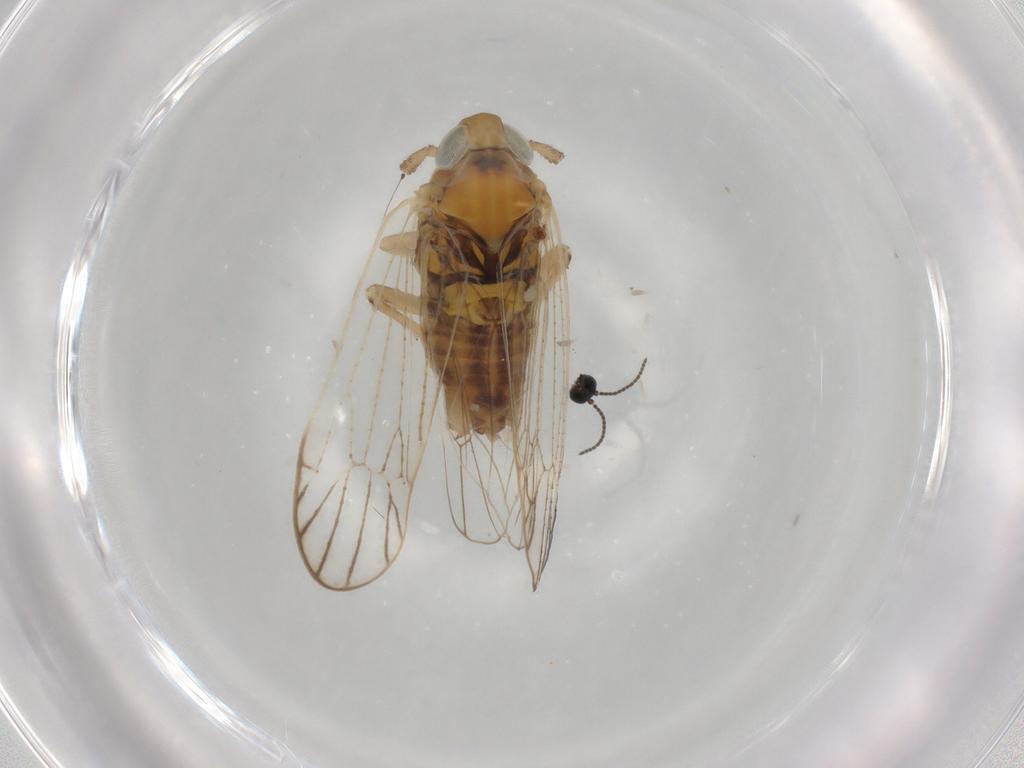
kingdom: Animalia
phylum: Arthropoda
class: Insecta
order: Hemiptera
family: Delphacidae
